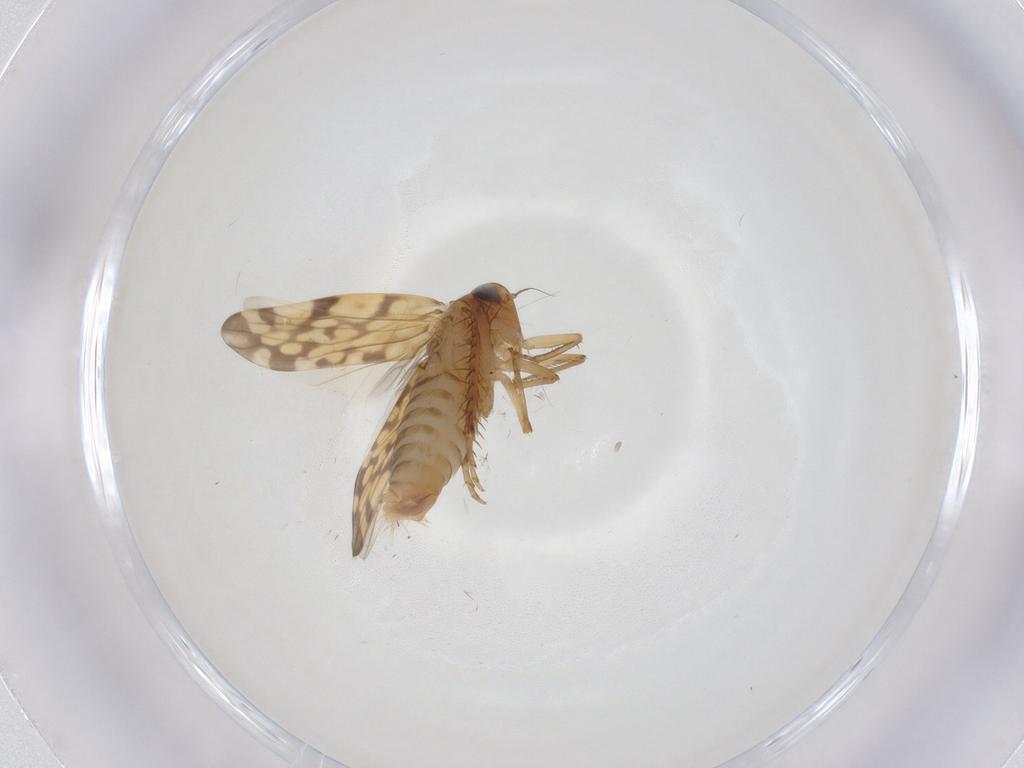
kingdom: Animalia
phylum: Arthropoda
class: Insecta
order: Hemiptera
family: Cicadellidae
